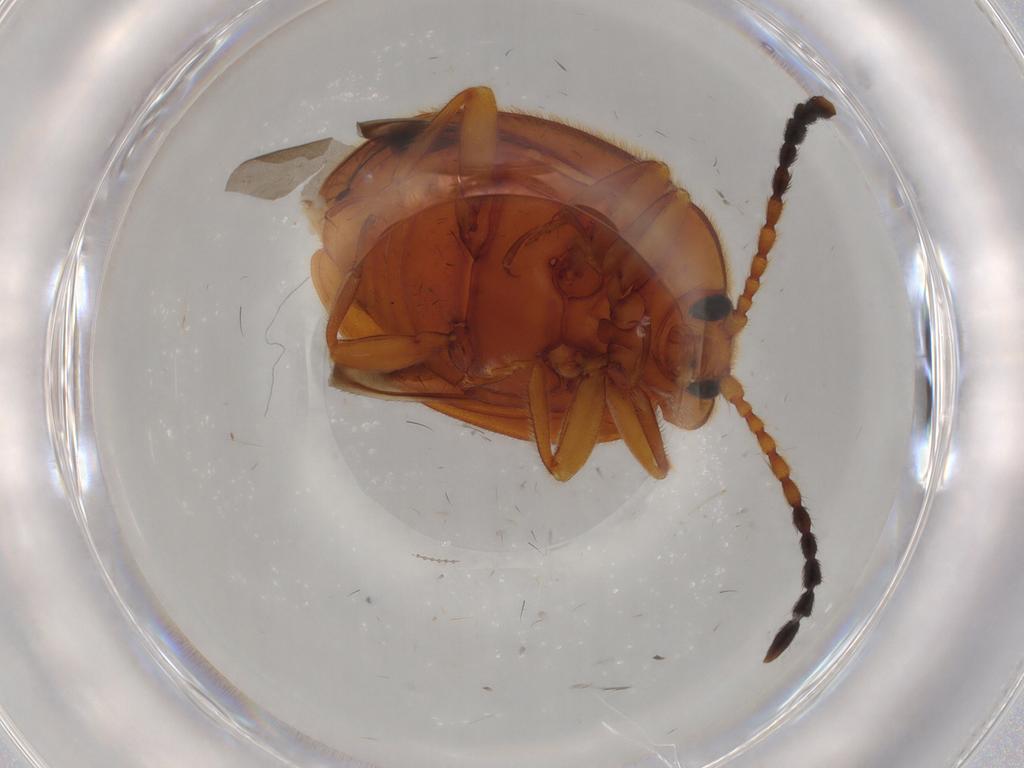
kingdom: Animalia
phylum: Arthropoda
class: Insecta
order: Coleoptera
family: Endomychidae
